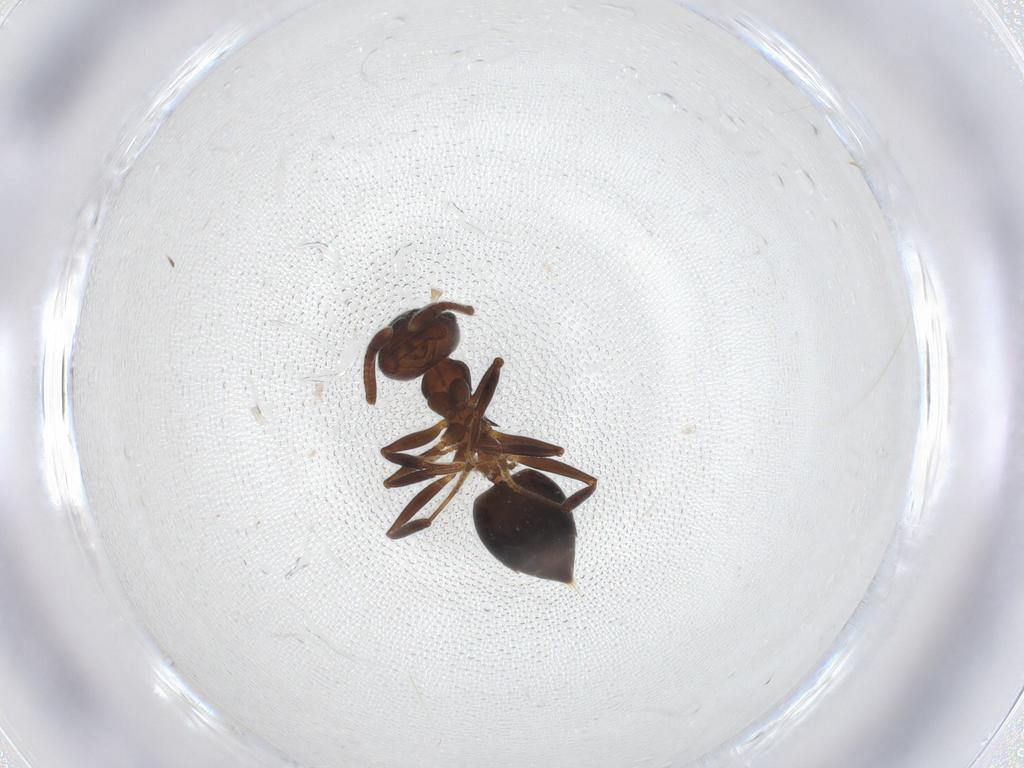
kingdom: Animalia
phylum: Arthropoda
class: Insecta
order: Hymenoptera
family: Formicidae
